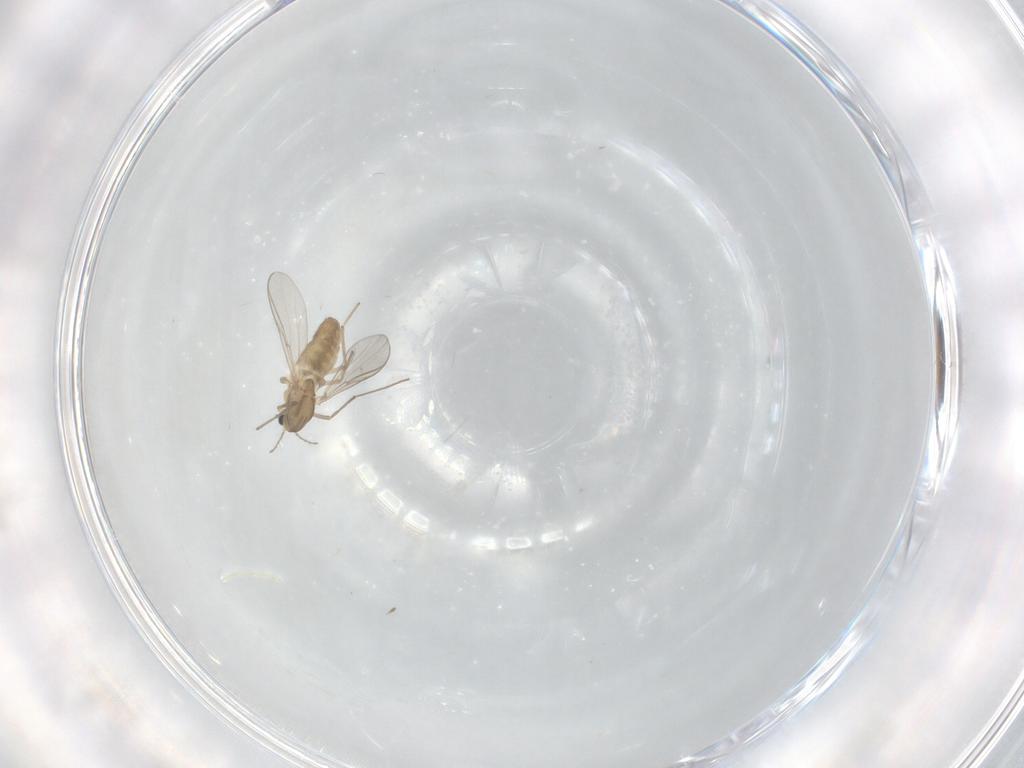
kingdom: Animalia
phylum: Arthropoda
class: Insecta
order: Diptera
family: Chironomidae
